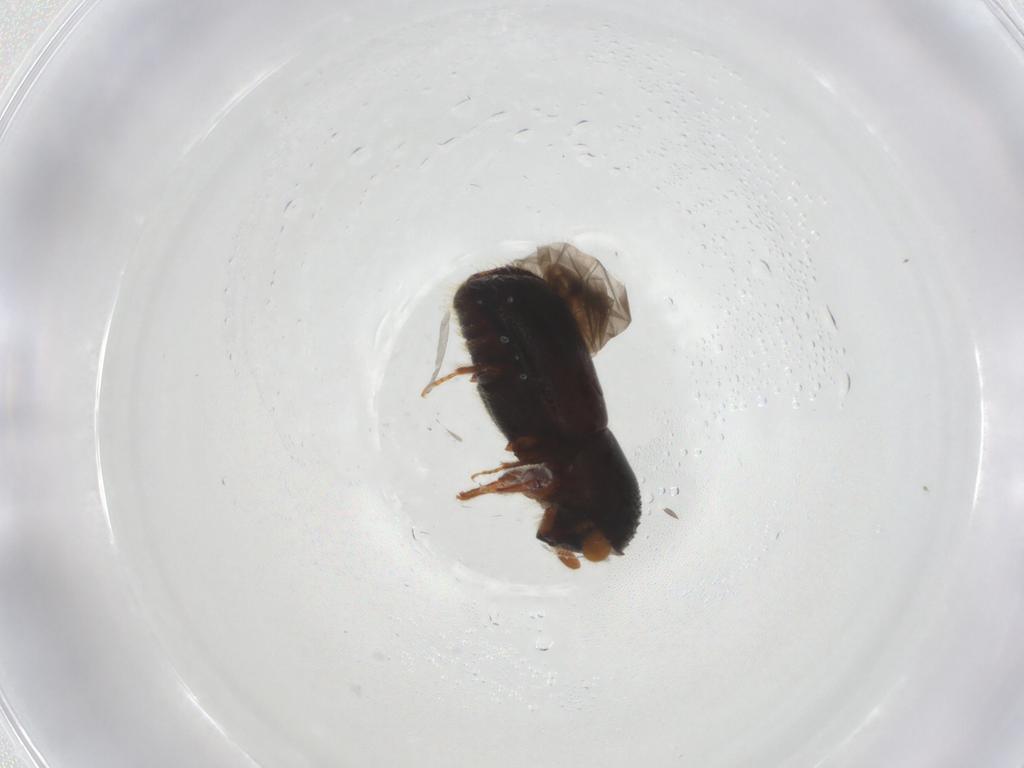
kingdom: Animalia
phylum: Arthropoda
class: Insecta
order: Coleoptera
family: Curculionidae
